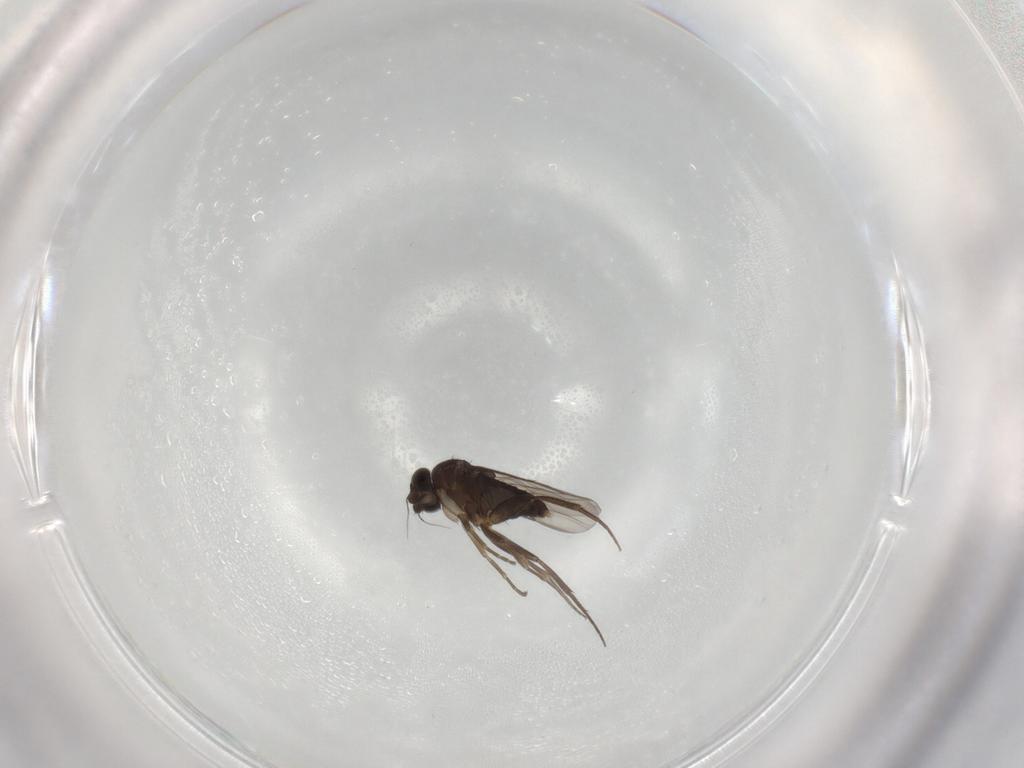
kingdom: Animalia
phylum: Arthropoda
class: Insecta
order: Diptera
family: Phoridae
